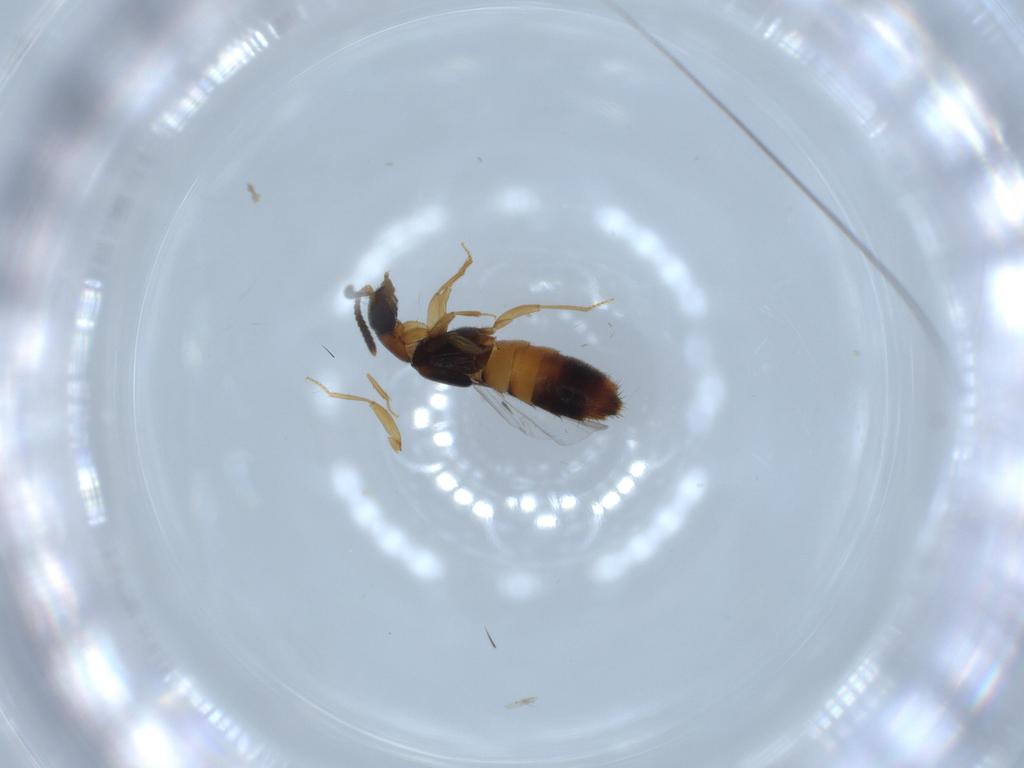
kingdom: Animalia
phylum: Arthropoda
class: Insecta
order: Coleoptera
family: Staphylinidae
